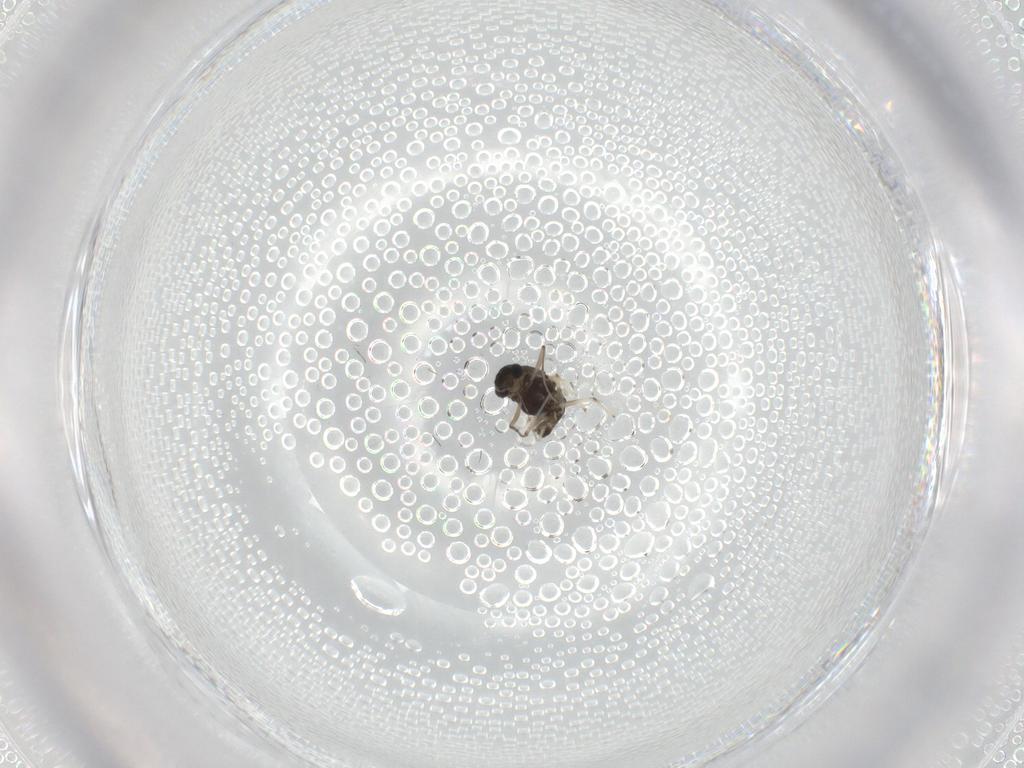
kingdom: Animalia
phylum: Arthropoda
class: Insecta
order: Diptera
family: Chironomidae
